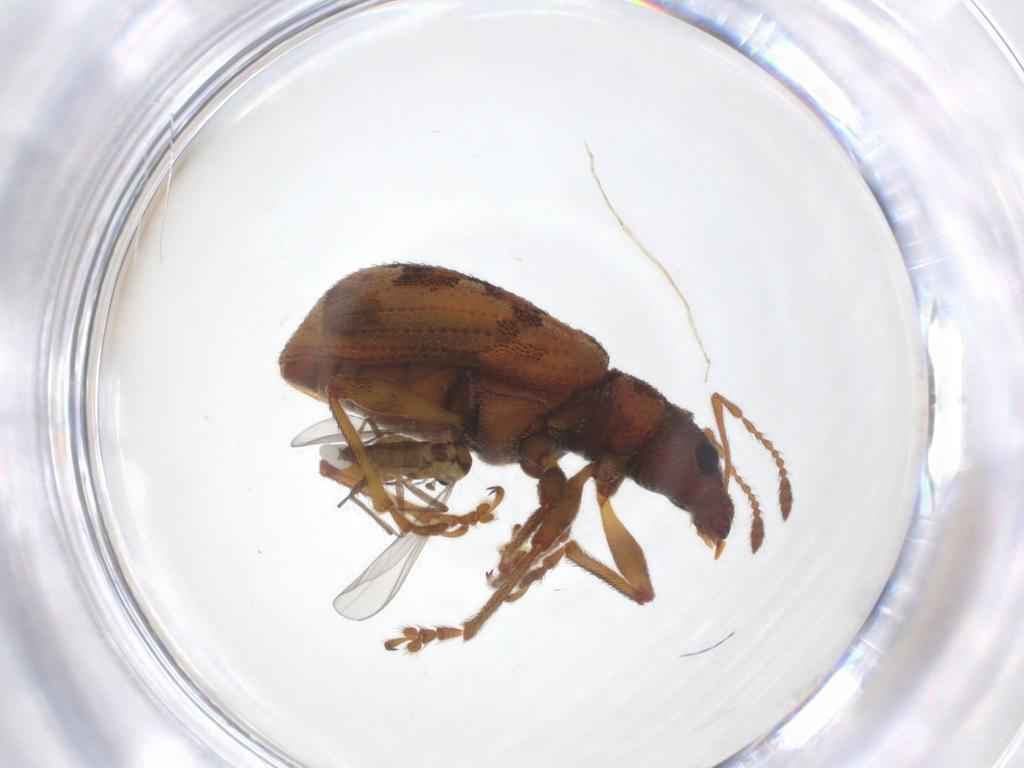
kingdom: Animalia
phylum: Arthropoda
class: Insecta
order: Diptera
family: Chironomidae
